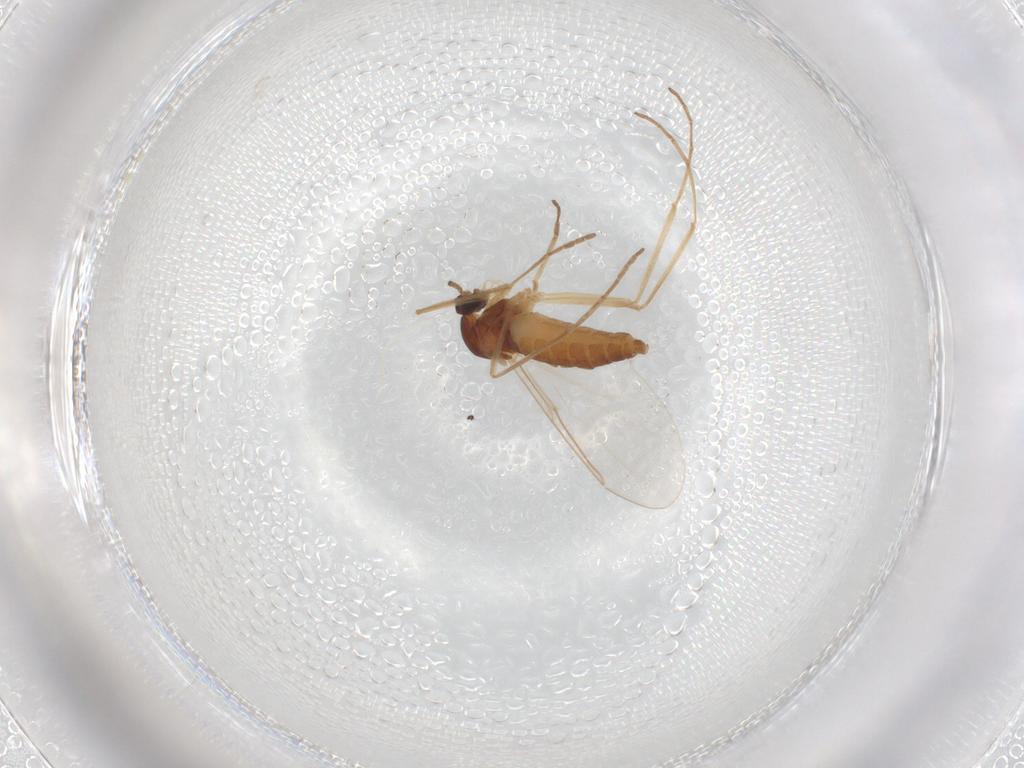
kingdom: Animalia
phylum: Arthropoda
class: Insecta
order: Diptera
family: Cecidomyiidae
